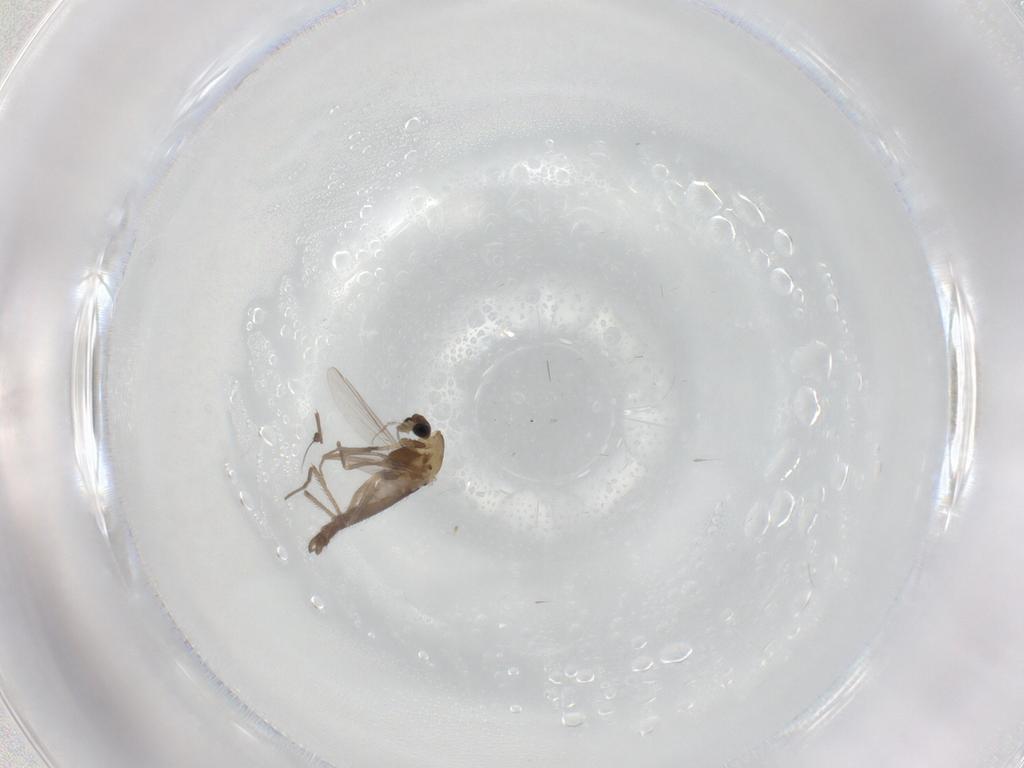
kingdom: Animalia
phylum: Arthropoda
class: Insecta
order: Diptera
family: Chironomidae
